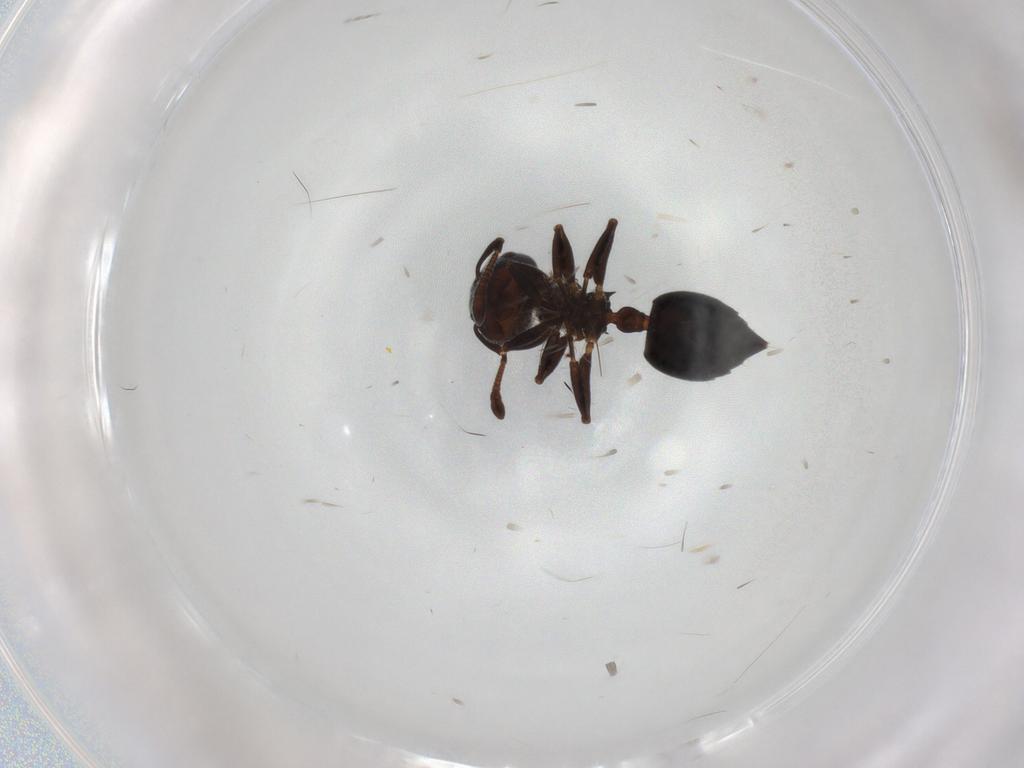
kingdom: Animalia
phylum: Arthropoda
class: Insecta
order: Hymenoptera
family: Formicidae
